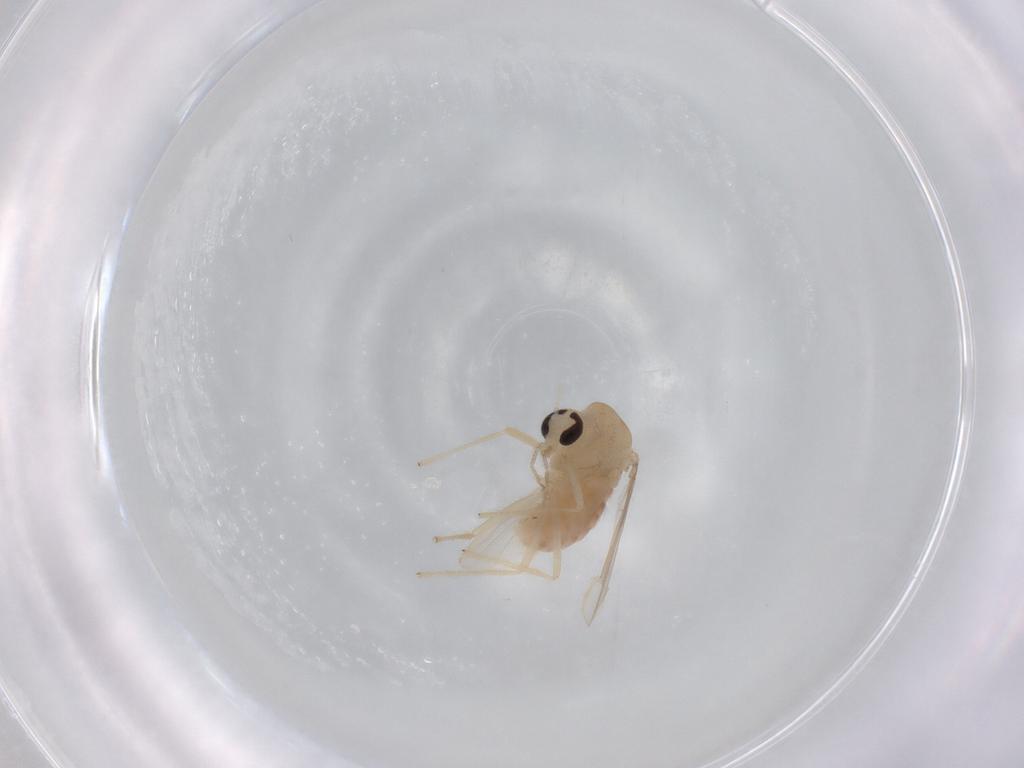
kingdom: Animalia
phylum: Arthropoda
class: Insecta
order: Diptera
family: Chironomidae
